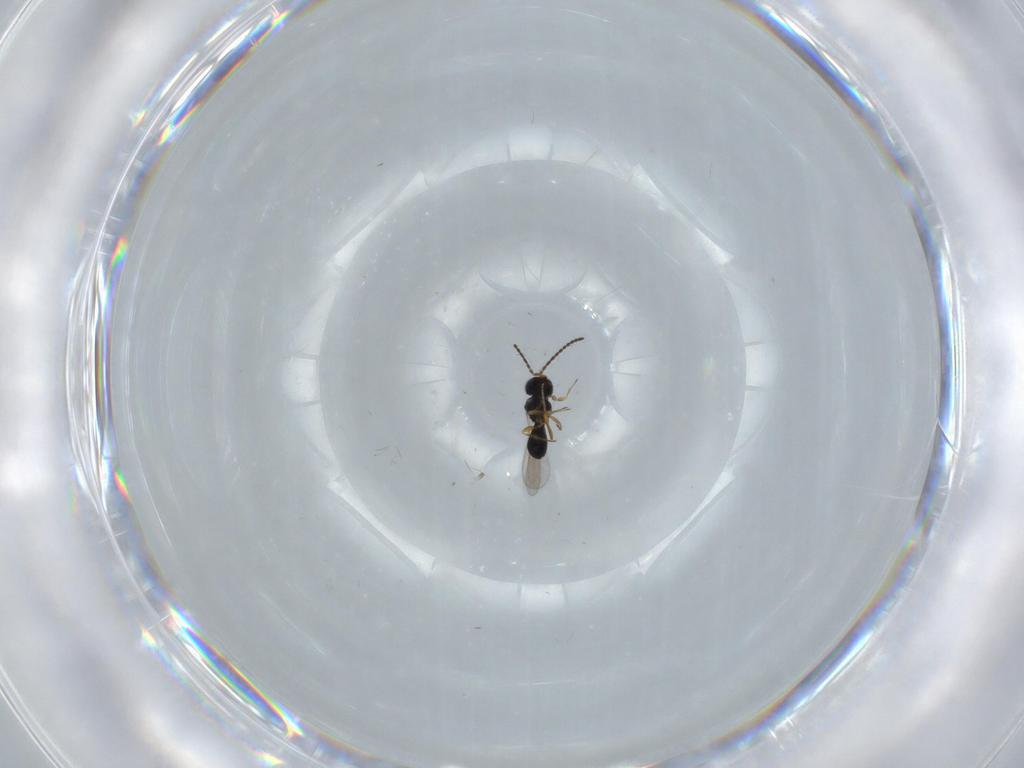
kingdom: Animalia
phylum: Arthropoda
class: Insecta
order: Hymenoptera
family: Scelionidae
